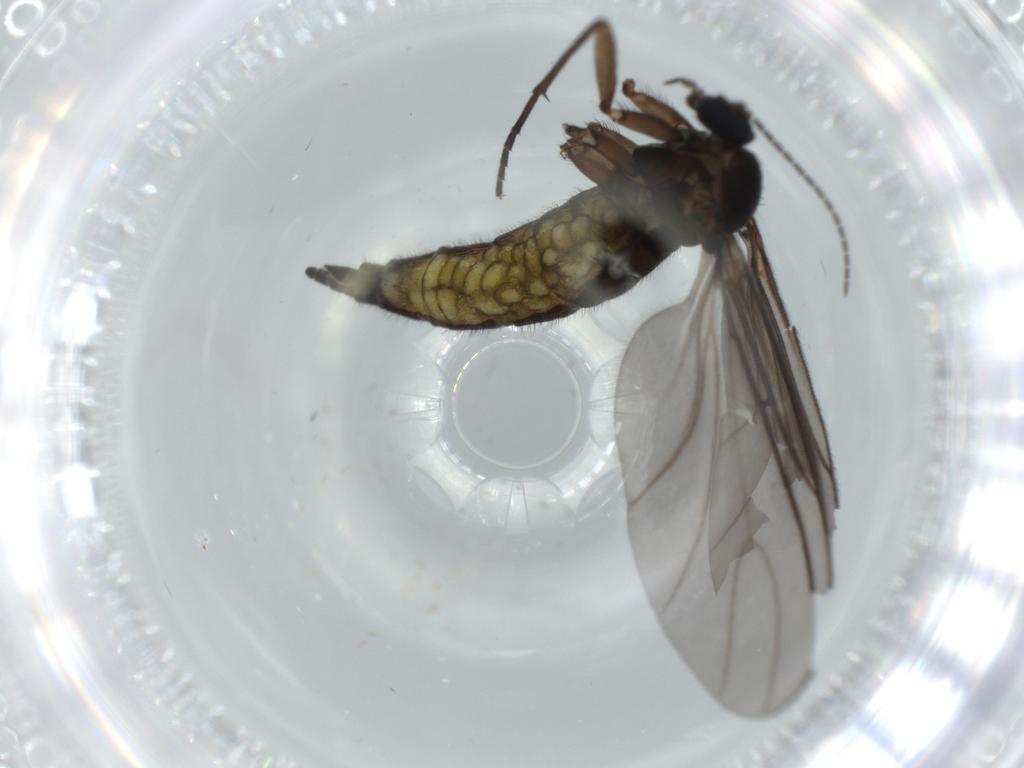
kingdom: Animalia
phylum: Arthropoda
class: Insecta
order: Diptera
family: Sciaridae
